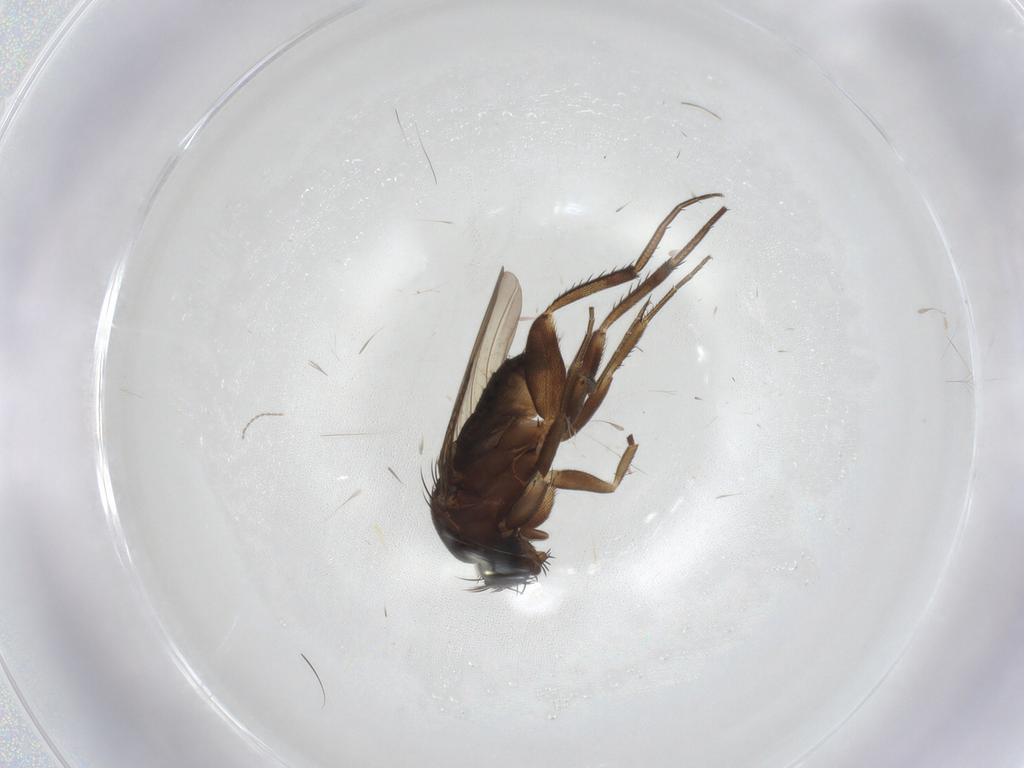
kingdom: Animalia
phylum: Arthropoda
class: Insecta
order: Diptera
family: Phoridae
